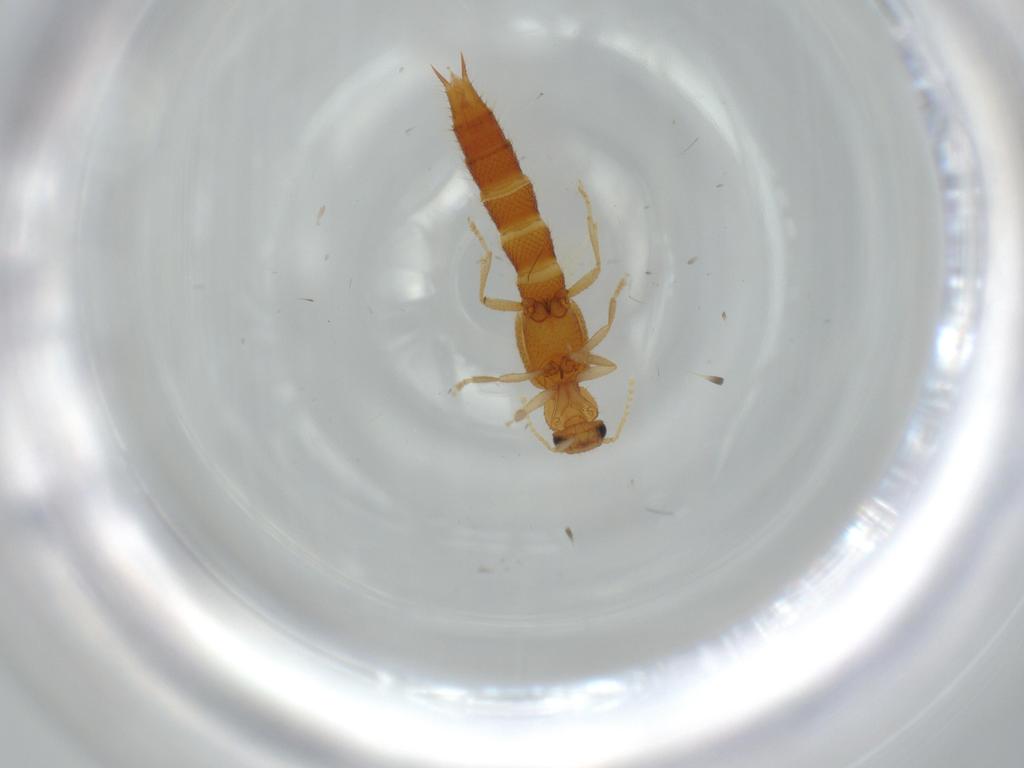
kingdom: Animalia
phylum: Arthropoda
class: Insecta
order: Coleoptera
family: Staphylinidae
